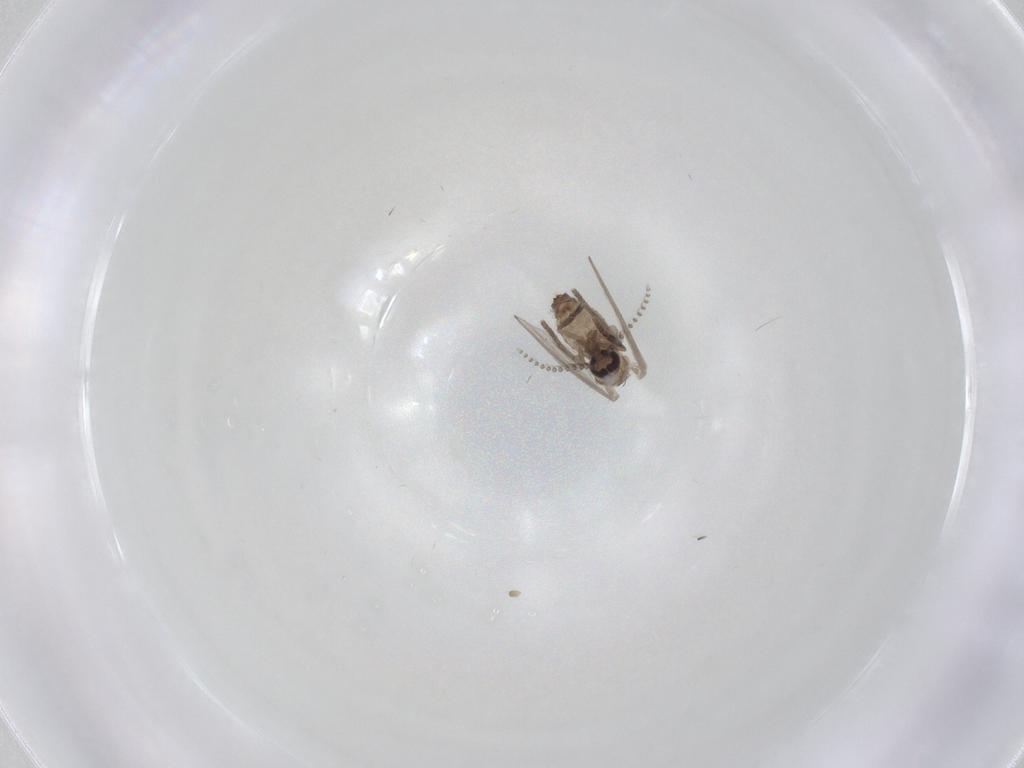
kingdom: Animalia
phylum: Arthropoda
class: Insecta
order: Diptera
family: Psychodidae
